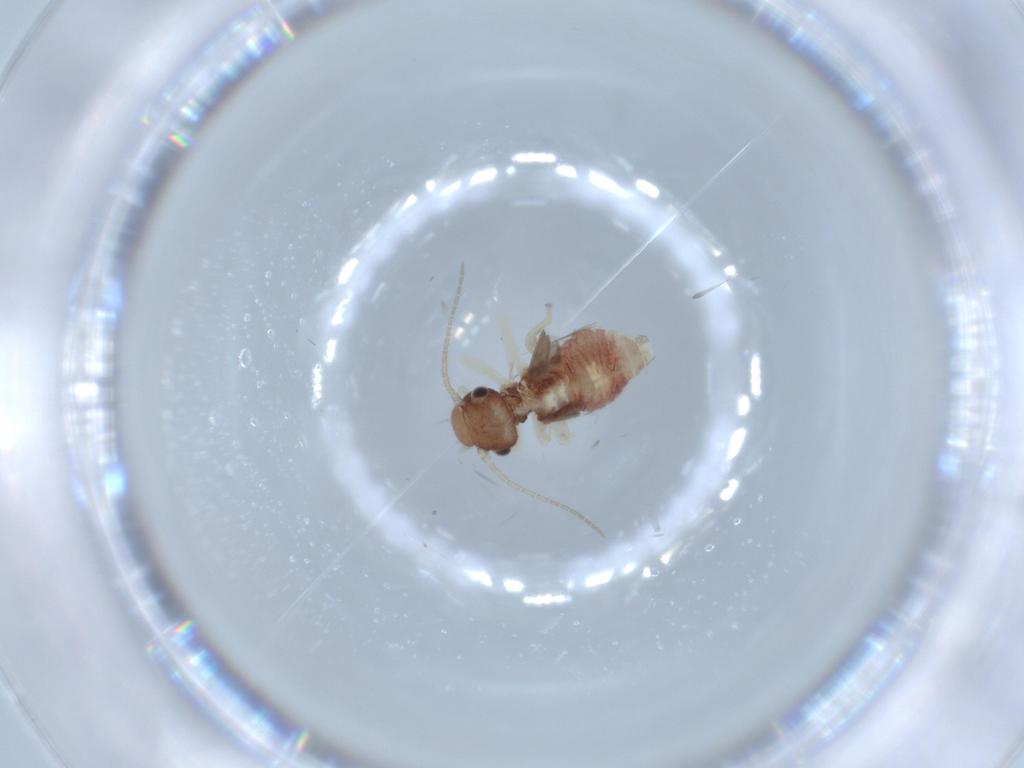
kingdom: Animalia
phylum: Arthropoda
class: Insecta
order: Psocodea
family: Caeciliusidae
